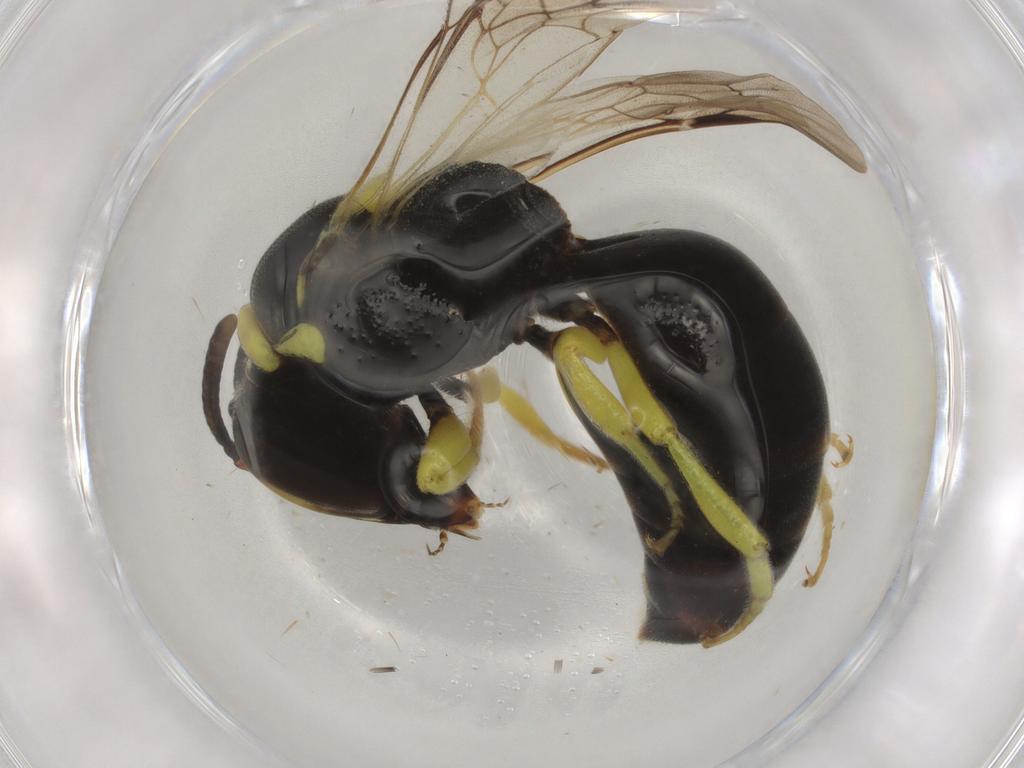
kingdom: Animalia
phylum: Arthropoda
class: Insecta
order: Hymenoptera
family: Colletidae
